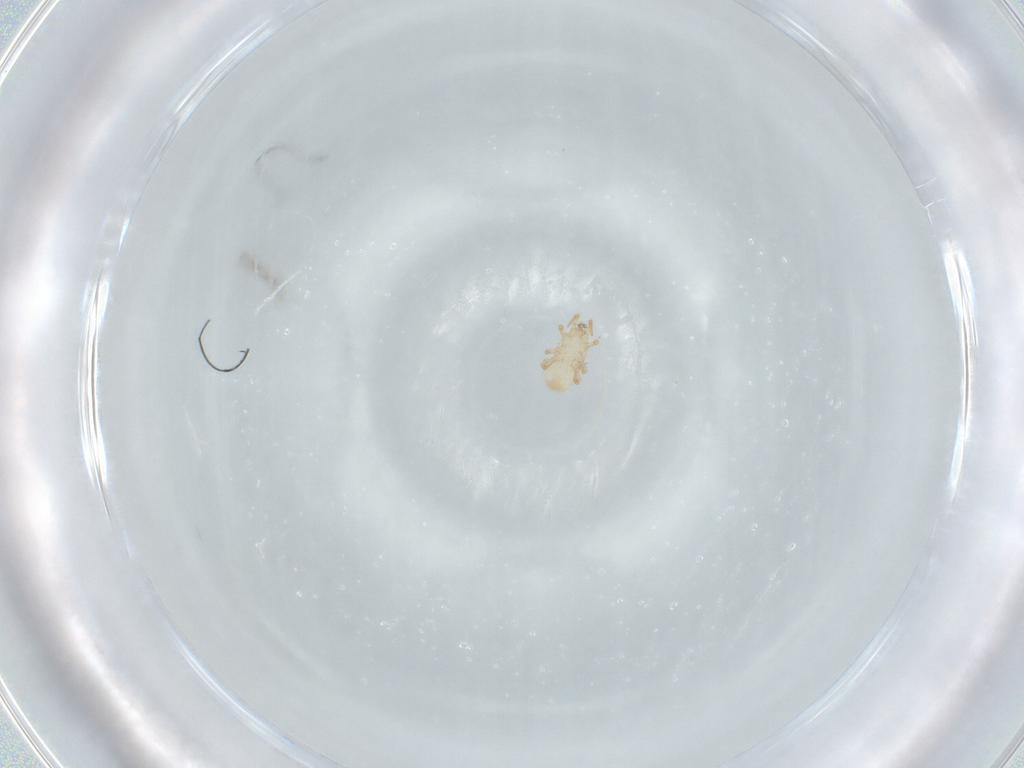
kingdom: Animalia
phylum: Arthropoda
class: Arachnida
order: Mesostigmata
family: Ascidae
